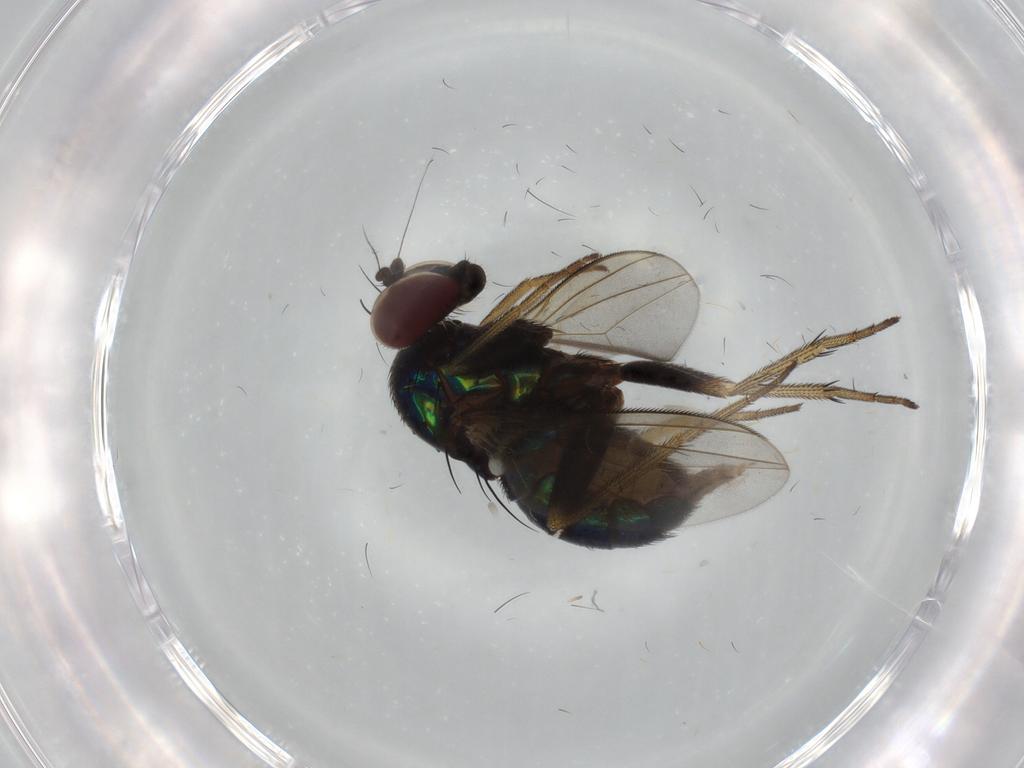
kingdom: Animalia
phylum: Arthropoda
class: Insecta
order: Diptera
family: Dolichopodidae
